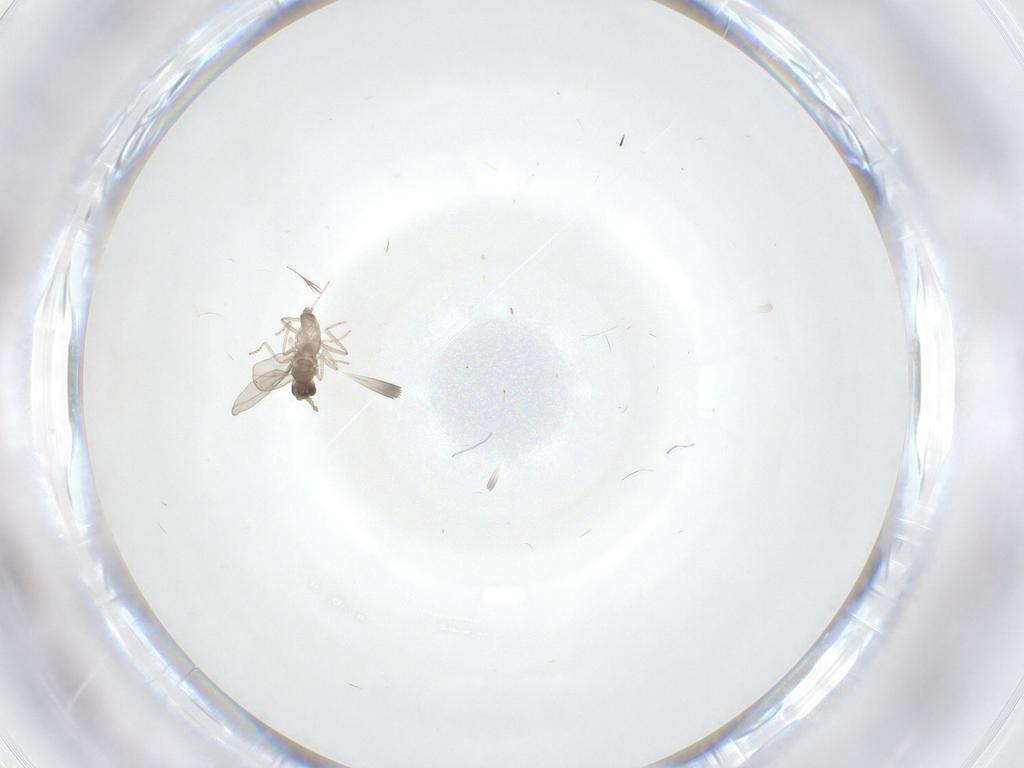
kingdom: Animalia
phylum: Arthropoda
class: Insecta
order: Diptera
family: Cecidomyiidae
